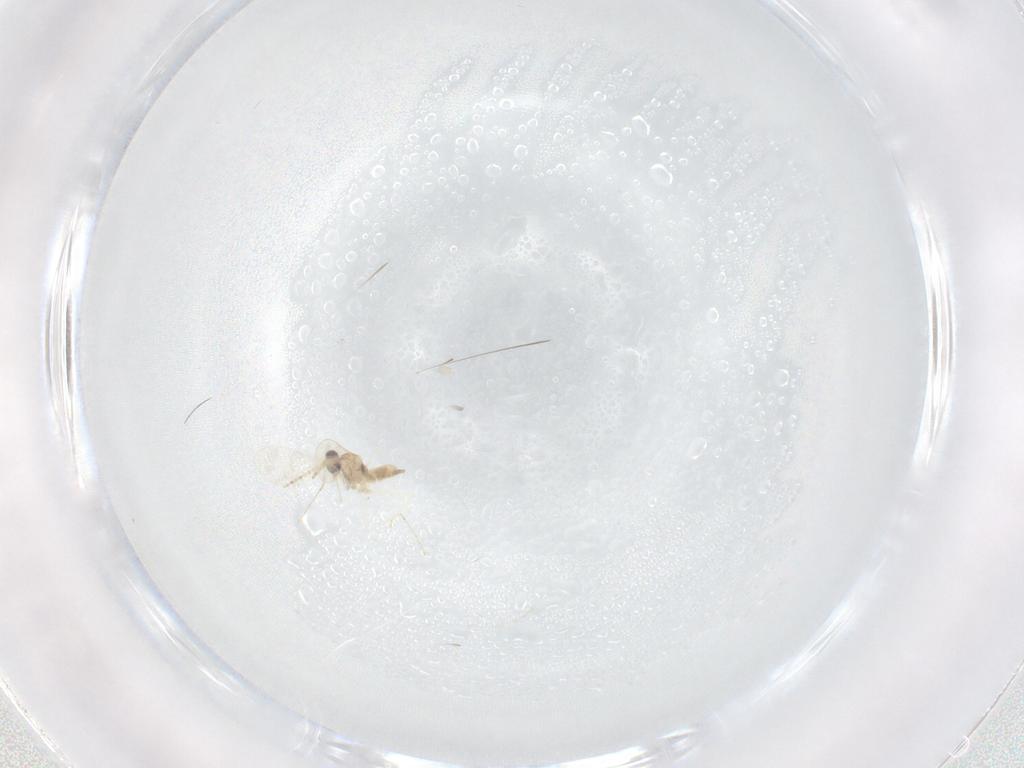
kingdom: Animalia
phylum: Arthropoda
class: Insecta
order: Diptera
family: Cecidomyiidae
